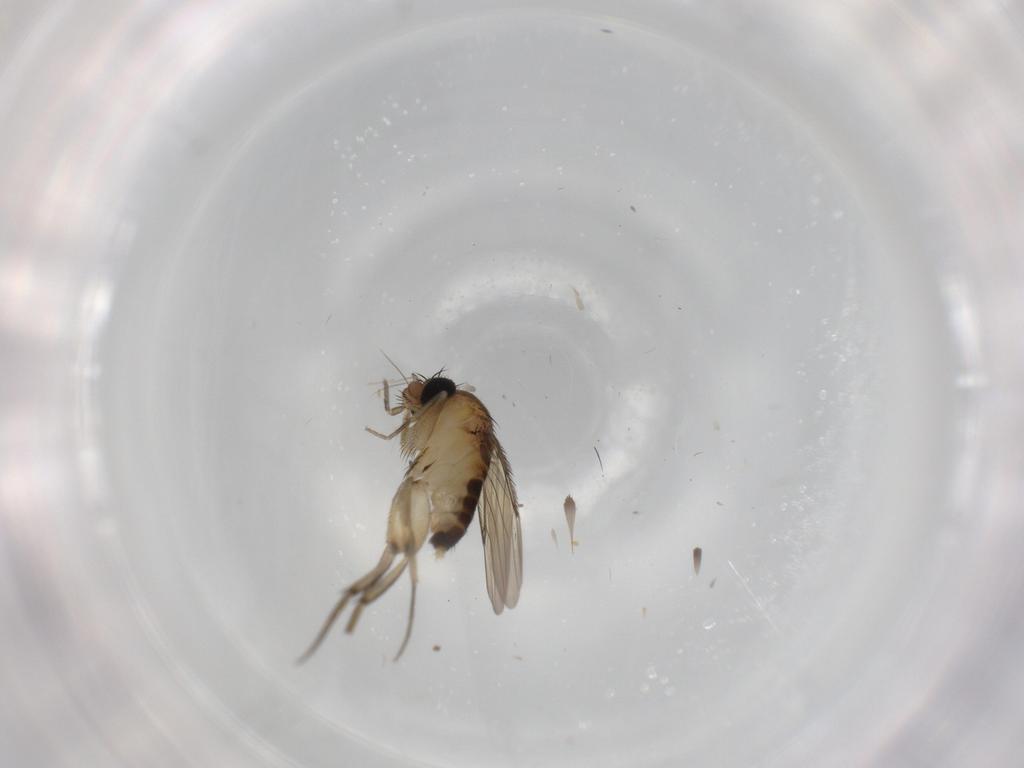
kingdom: Animalia
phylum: Arthropoda
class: Insecta
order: Diptera
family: Phoridae
